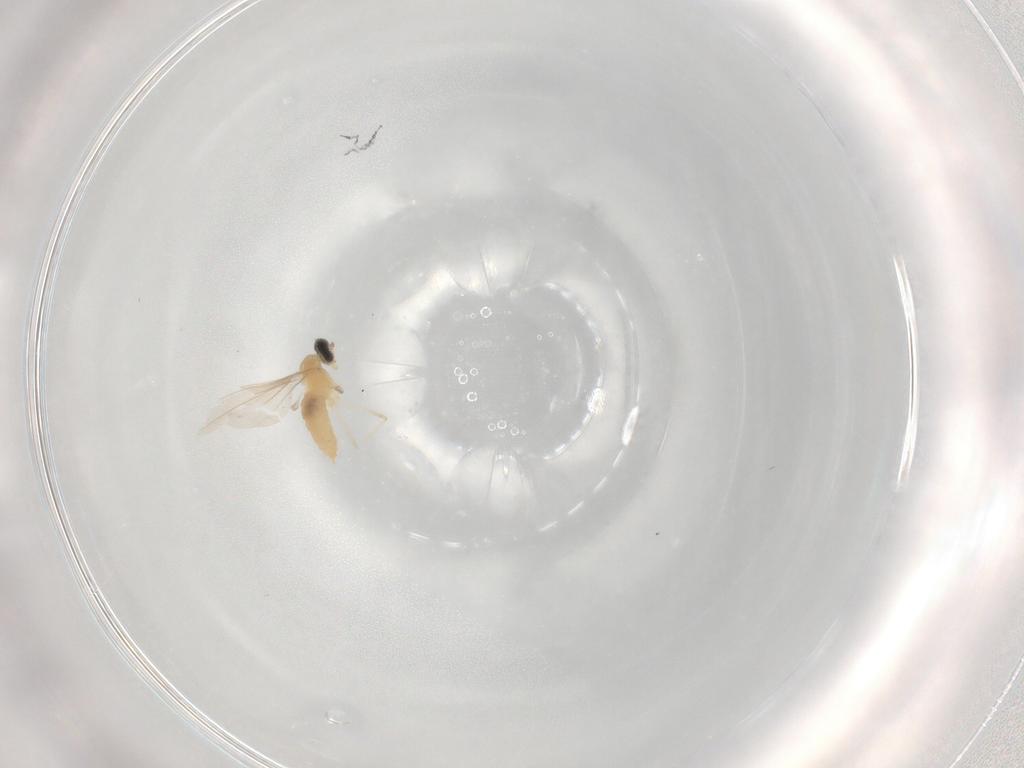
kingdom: Animalia
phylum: Arthropoda
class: Insecta
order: Diptera
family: Cecidomyiidae
